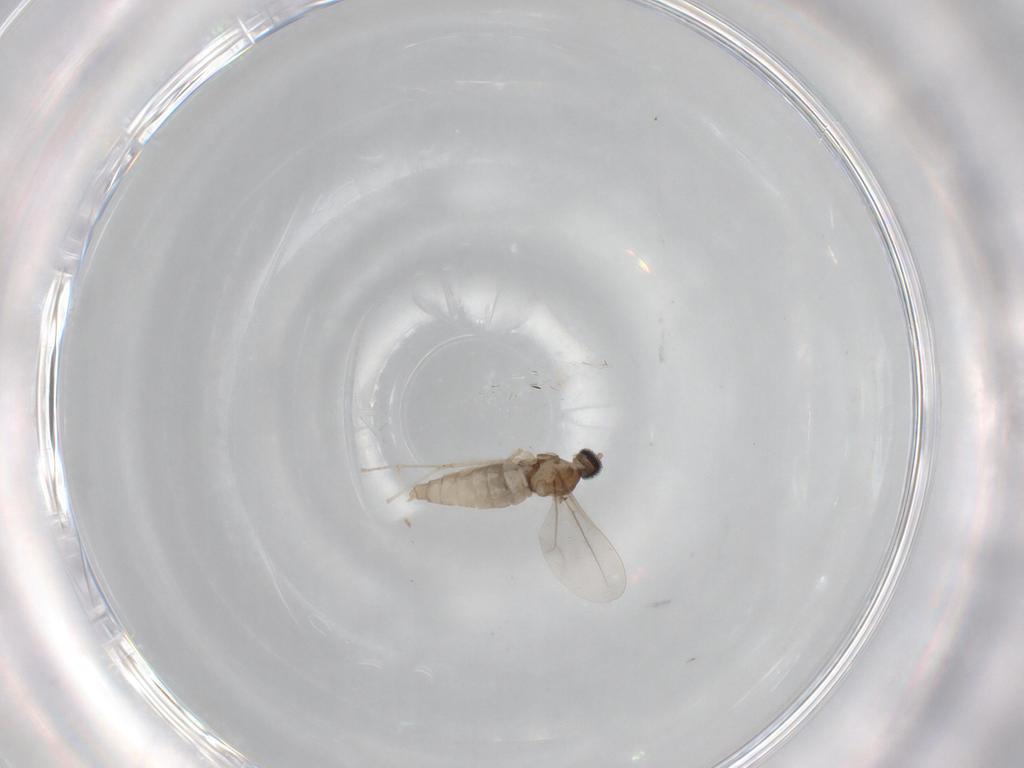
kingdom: Animalia
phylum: Arthropoda
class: Insecta
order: Diptera
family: Cecidomyiidae
